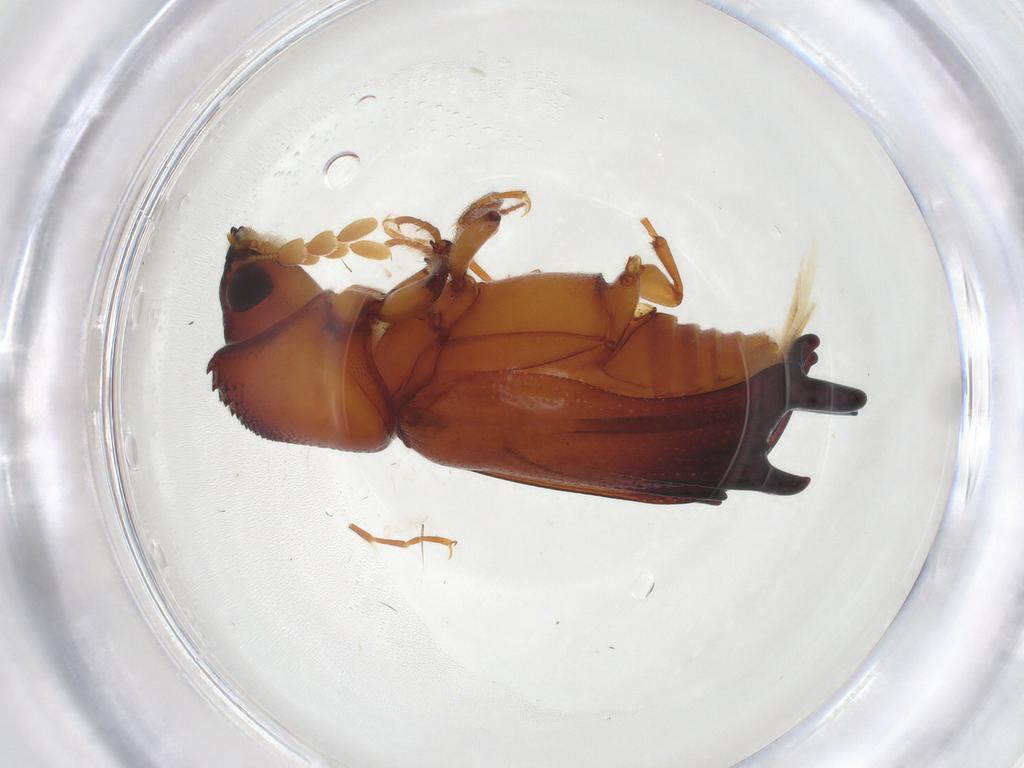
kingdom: Animalia
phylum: Arthropoda
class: Insecta
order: Coleoptera
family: Bostrichidae
